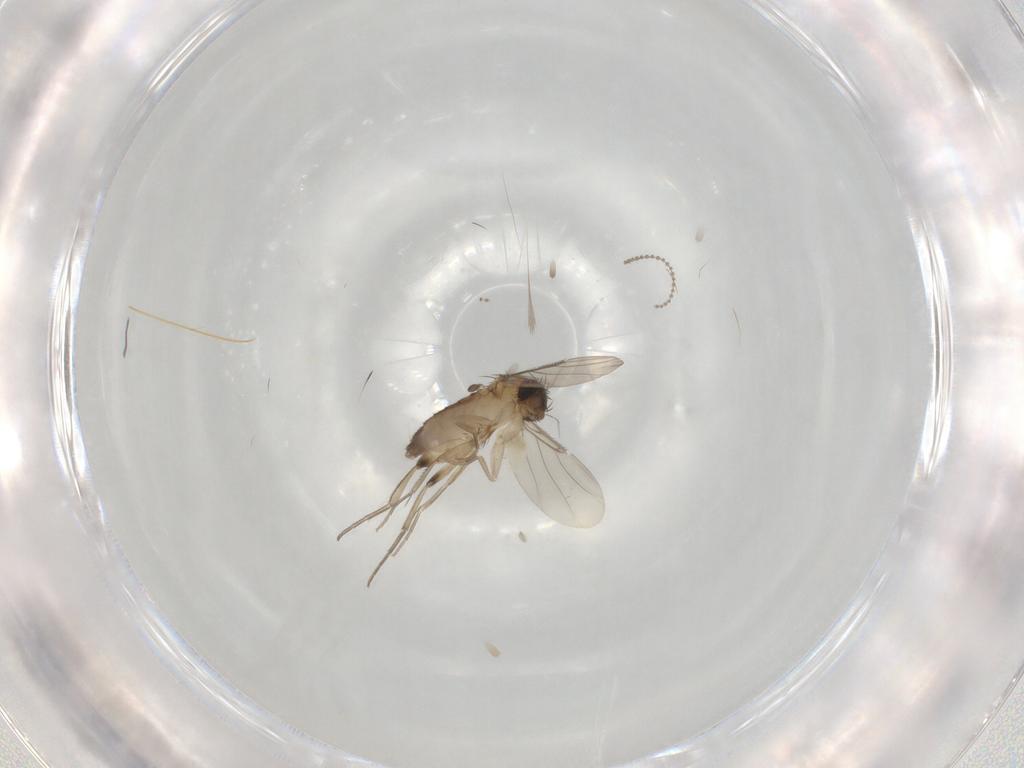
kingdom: Animalia
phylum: Arthropoda
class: Insecta
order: Diptera
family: Phoridae
